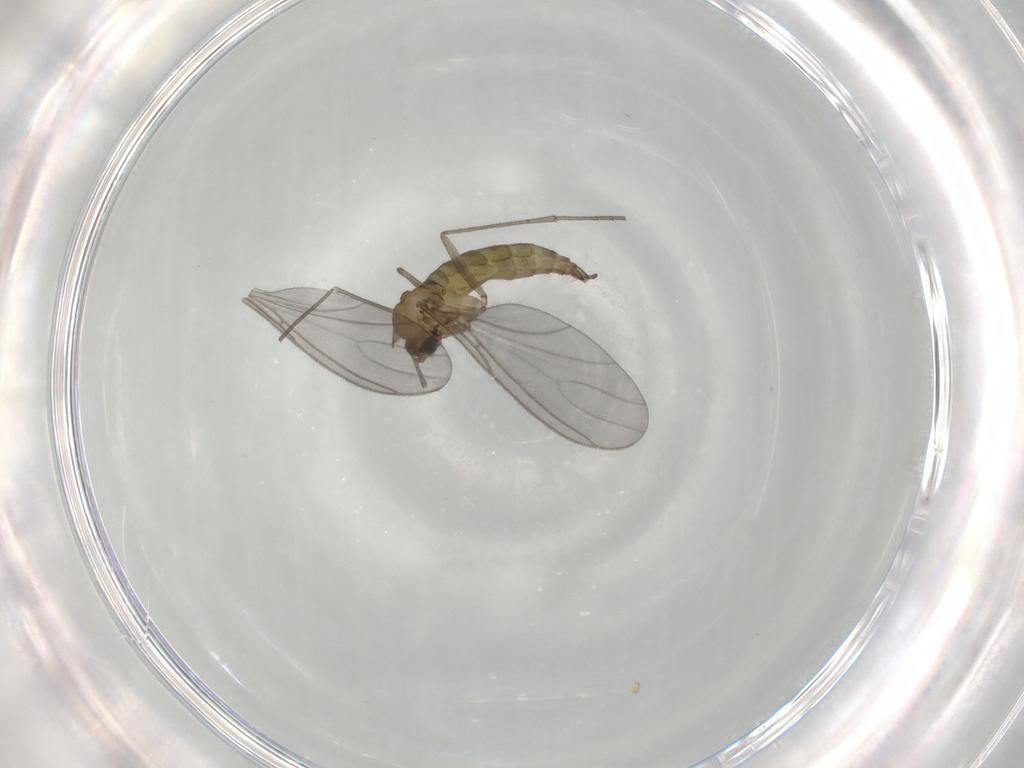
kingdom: Animalia
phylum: Arthropoda
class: Insecta
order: Diptera
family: Sciaridae
